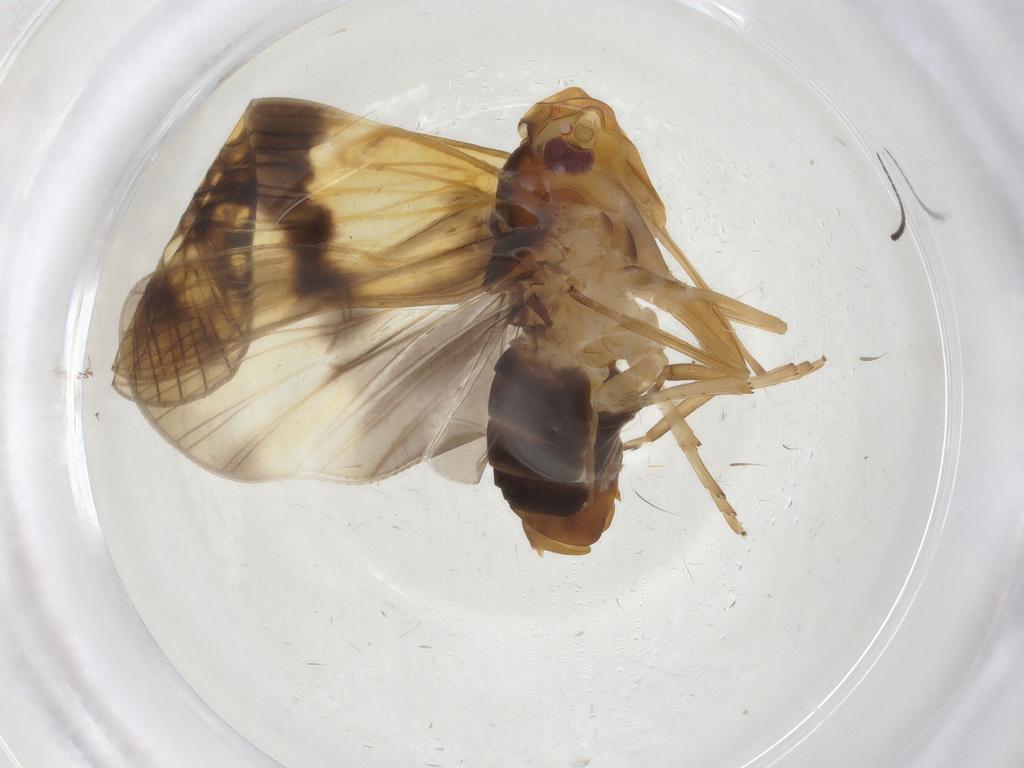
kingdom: Animalia
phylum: Arthropoda
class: Insecta
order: Hemiptera
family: Cixiidae
